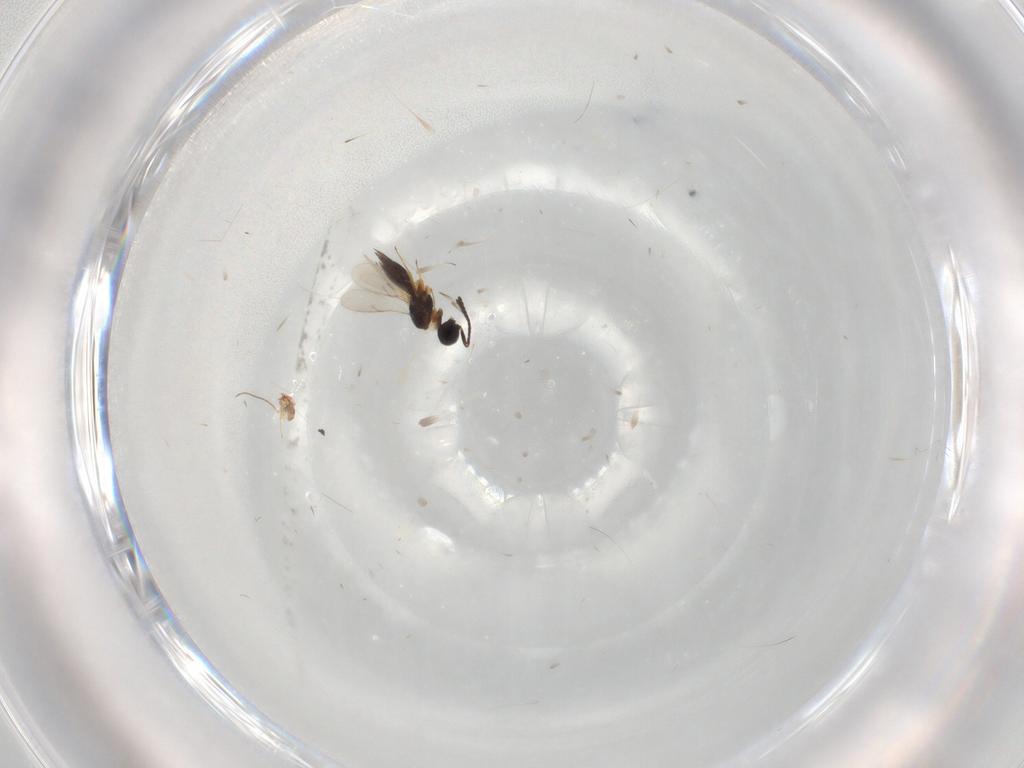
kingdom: Animalia
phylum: Arthropoda
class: Insecta
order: Hymenoptera
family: Scelionidae
